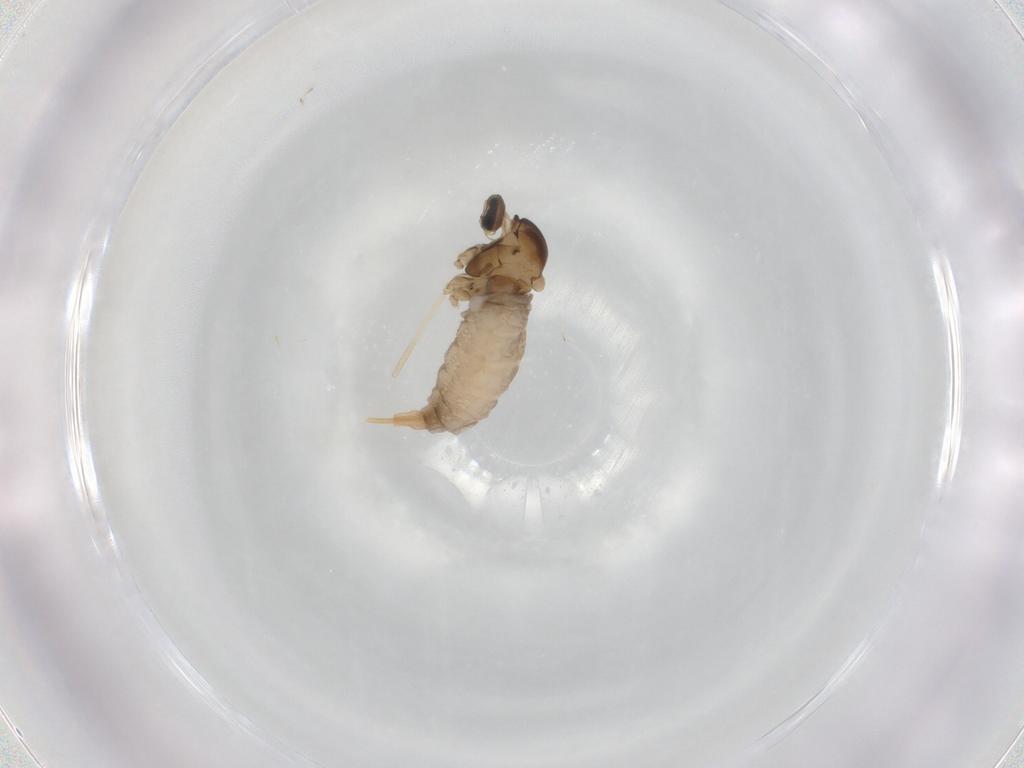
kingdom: Animalia
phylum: Arthropoda
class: Insecta
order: Diptera
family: Cecidomyiidae
